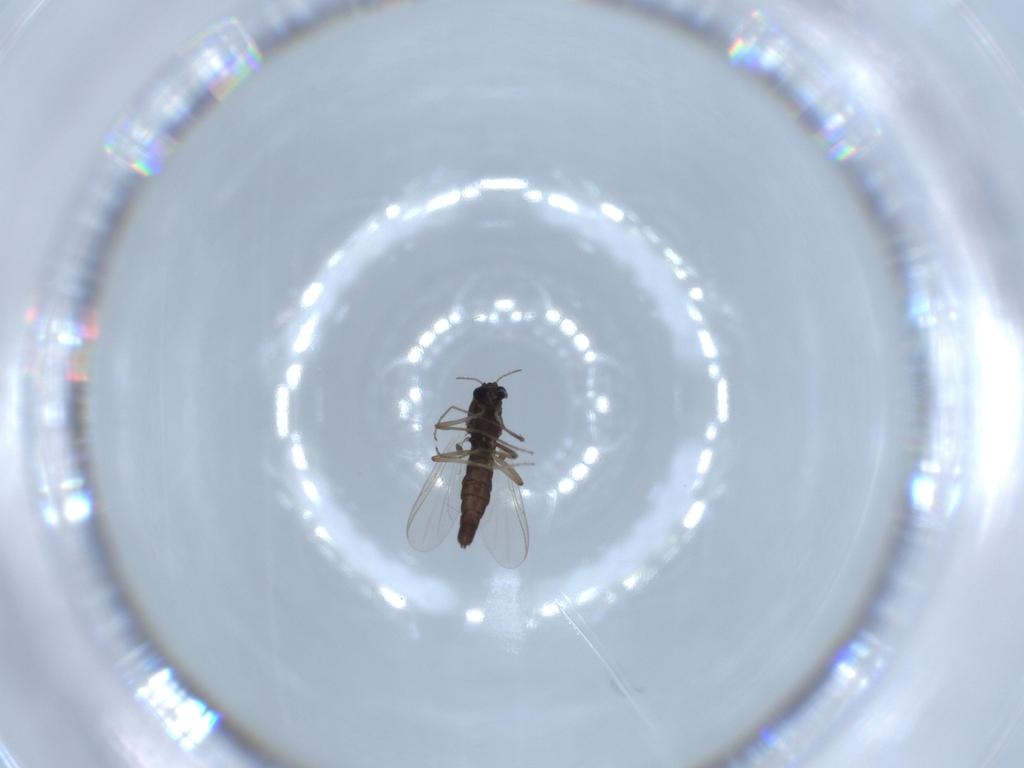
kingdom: Animalia
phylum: Arthropoda
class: Insecta
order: Diptera
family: Chironomidae
